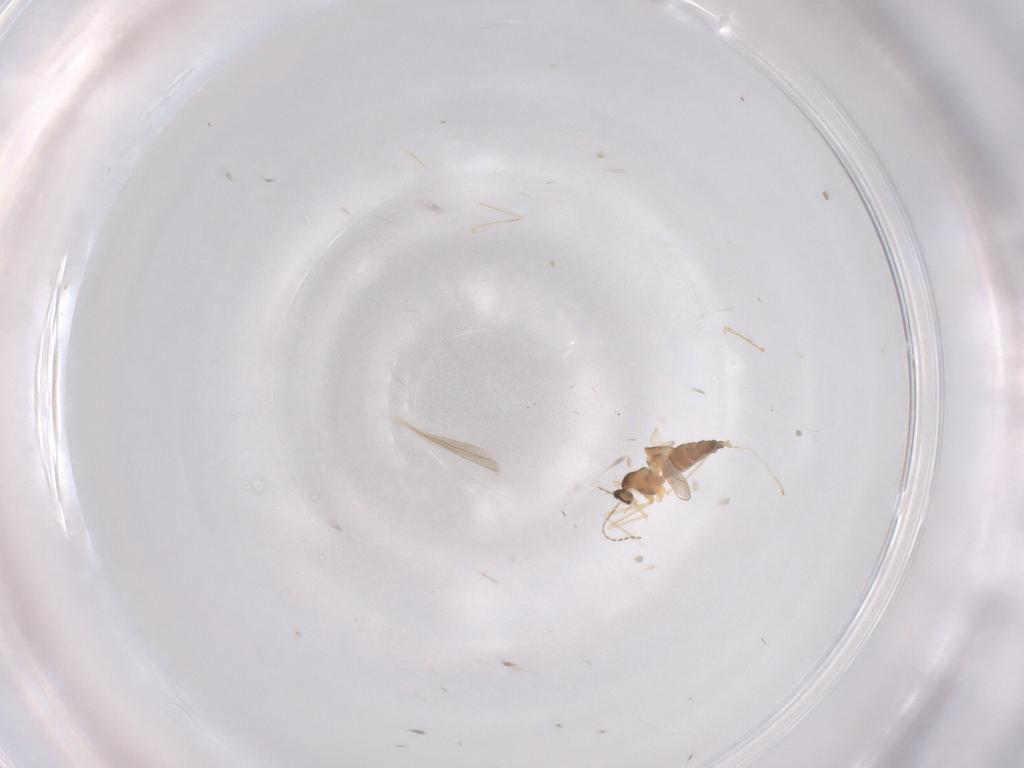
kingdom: Animalia
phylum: Arthropoda
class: Insecta
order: Diptera
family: Cecidomyiidae
